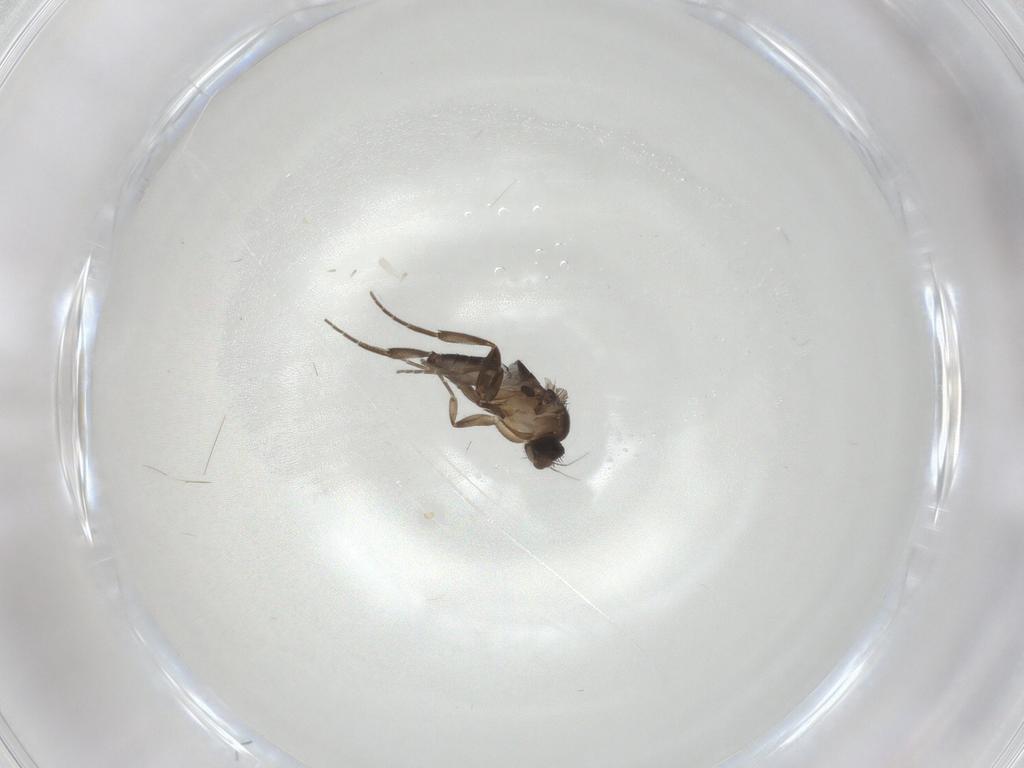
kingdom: Animalia
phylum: Arthropoda
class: Insecta
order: Diptera
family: Phoridae
